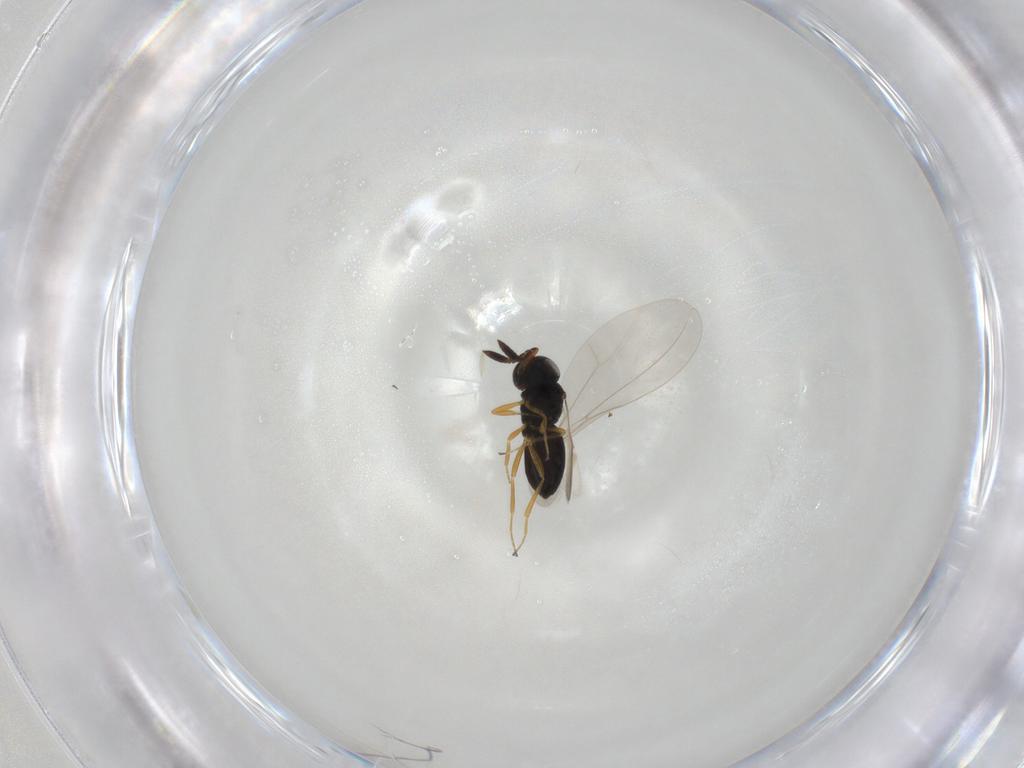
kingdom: Animalia
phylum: Arthropoda
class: Insecta
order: Hymenoptera
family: Scelionidae
